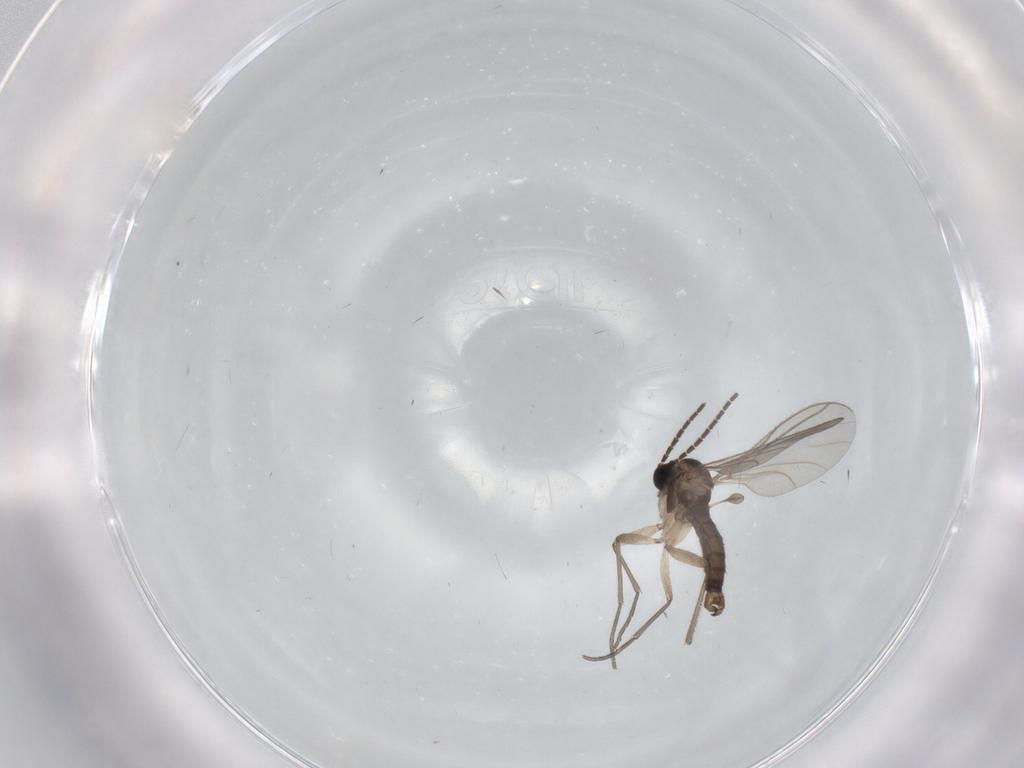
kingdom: Animalia
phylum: Arthropoda
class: Insecta
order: Diptera
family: Sciaridae
